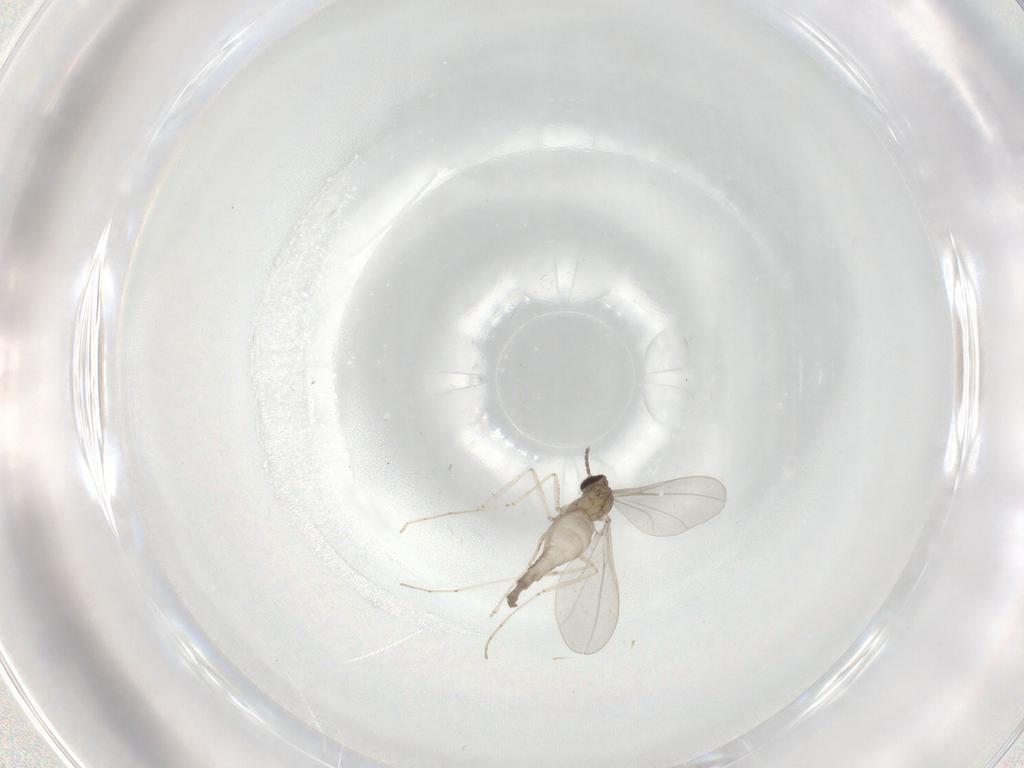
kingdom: Animalia
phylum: Arthropoda
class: Insecta
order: Diptera
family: Cecidomyiidae
